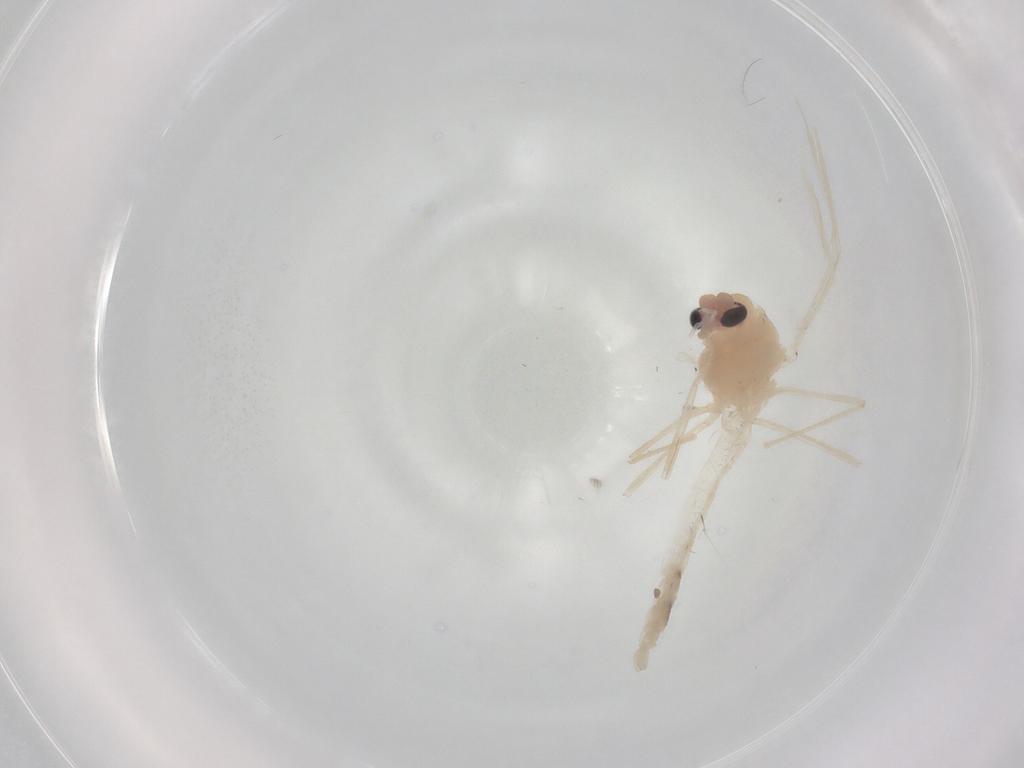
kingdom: Animalia
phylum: Arthropoda
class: Insecta
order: Diptera
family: Chironomidae
